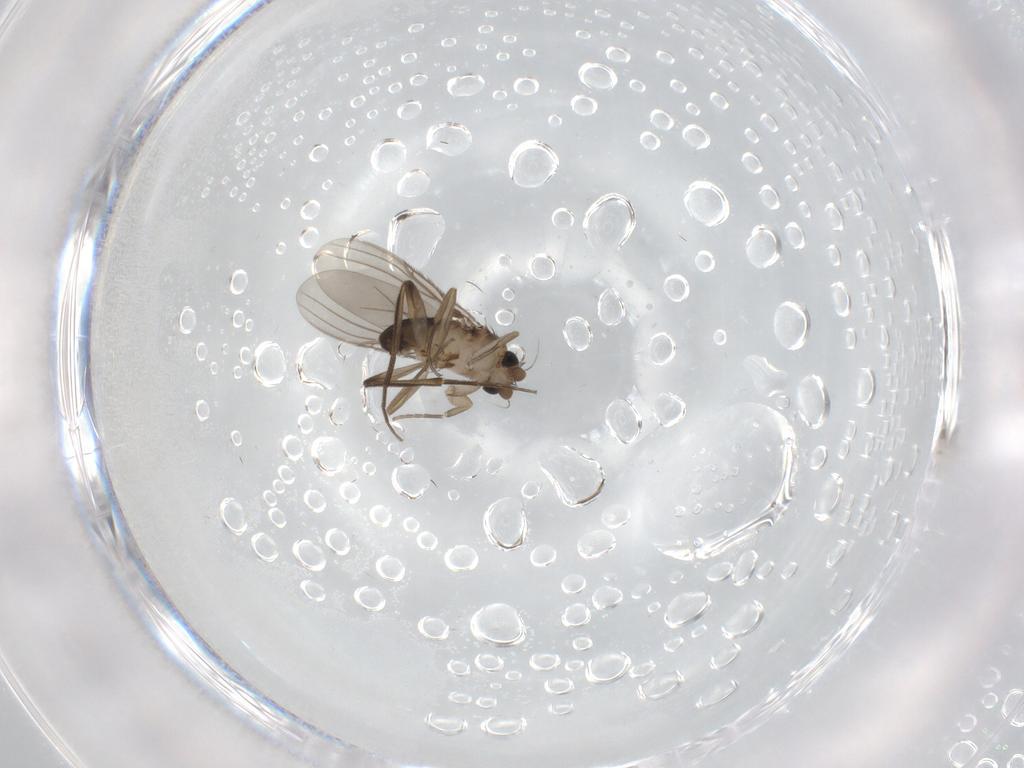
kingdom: Animalia
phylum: Arthropoda
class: Insecta
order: Diptera
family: Phoridae
